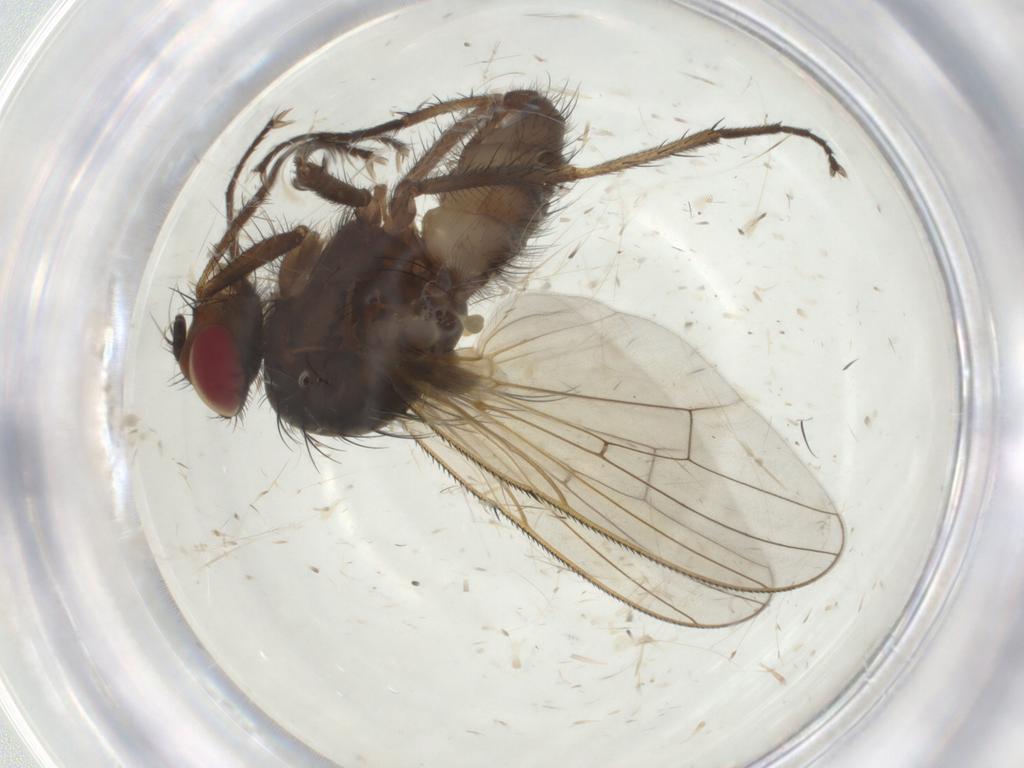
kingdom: Animalia
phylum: Arthropoda
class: Insecta
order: Diptera
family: Anthomyiidae
